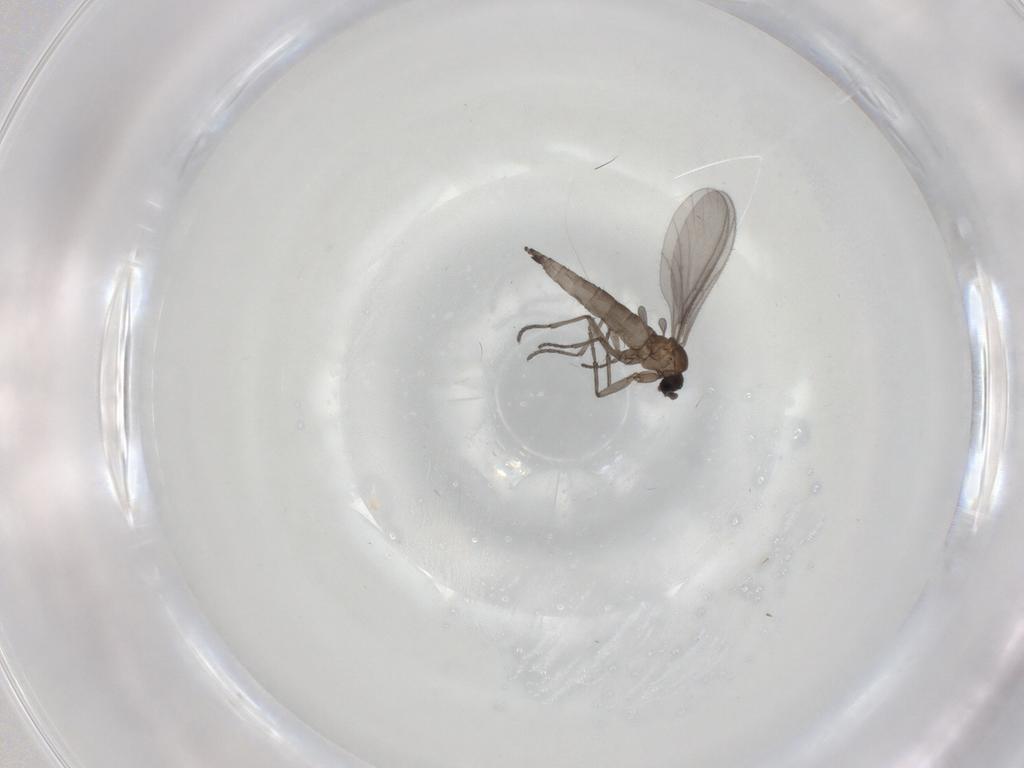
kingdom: Animalia
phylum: Arthropoda
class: Insecta
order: Diptera
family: Sciaridae
